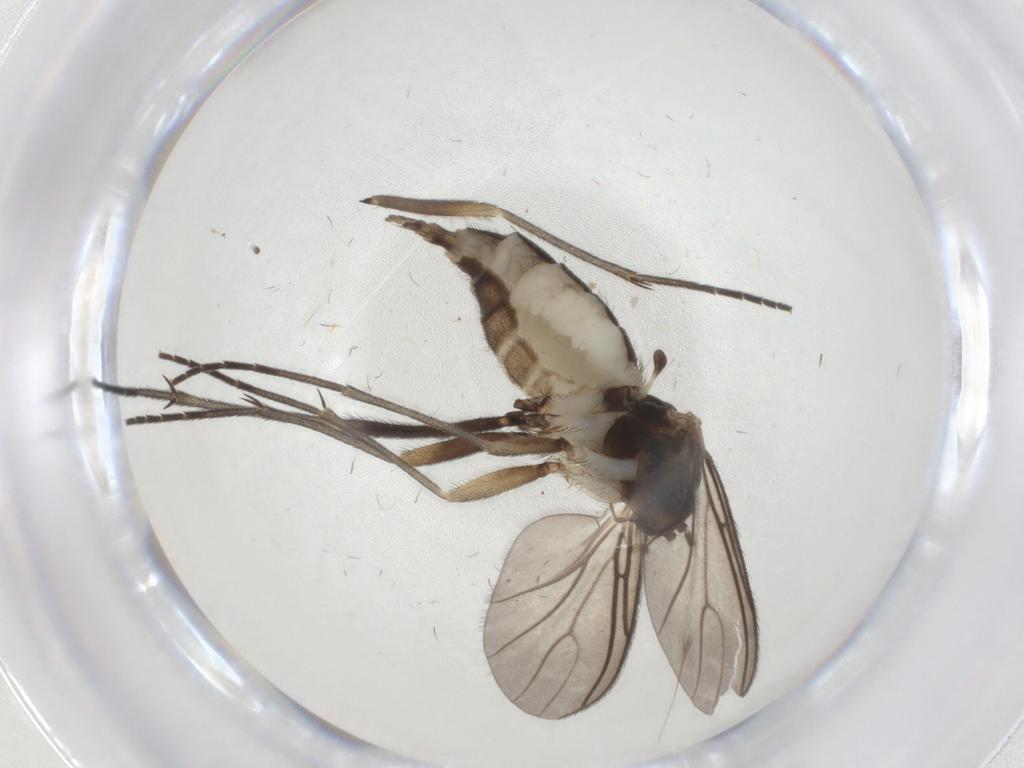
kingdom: Animalia
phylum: Arthropoda
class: Insecta
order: Diptera
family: Sciaridae
